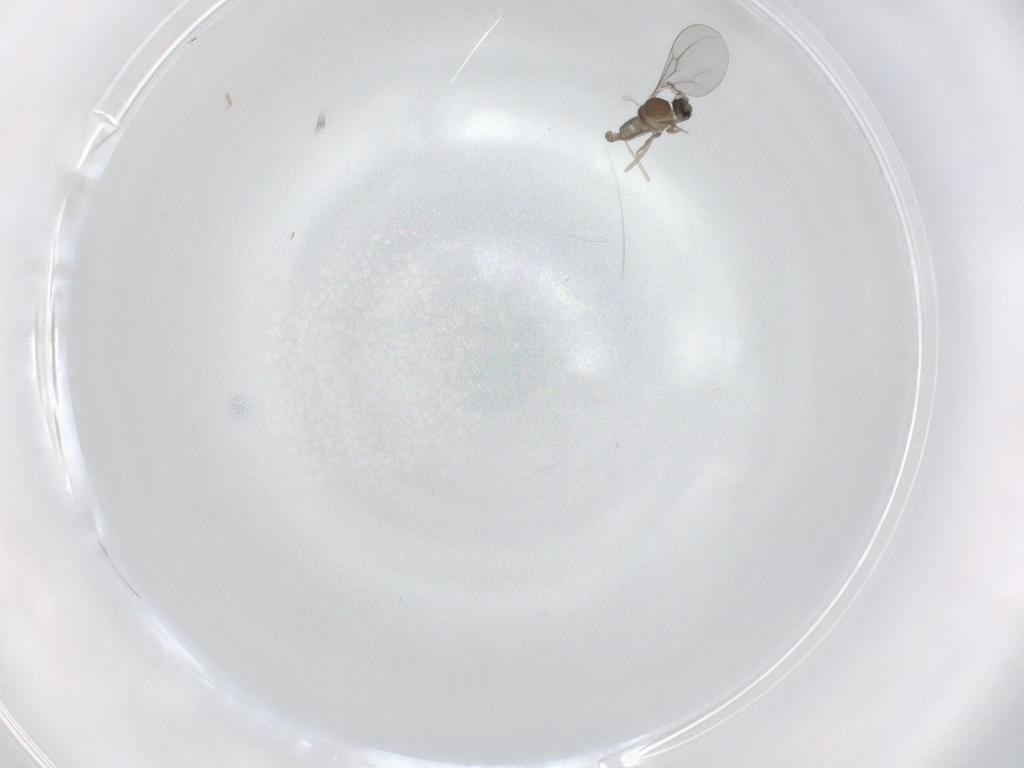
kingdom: Animalia
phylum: Arthropoda
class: Insecta
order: Diptera
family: Cecidomyiidae
